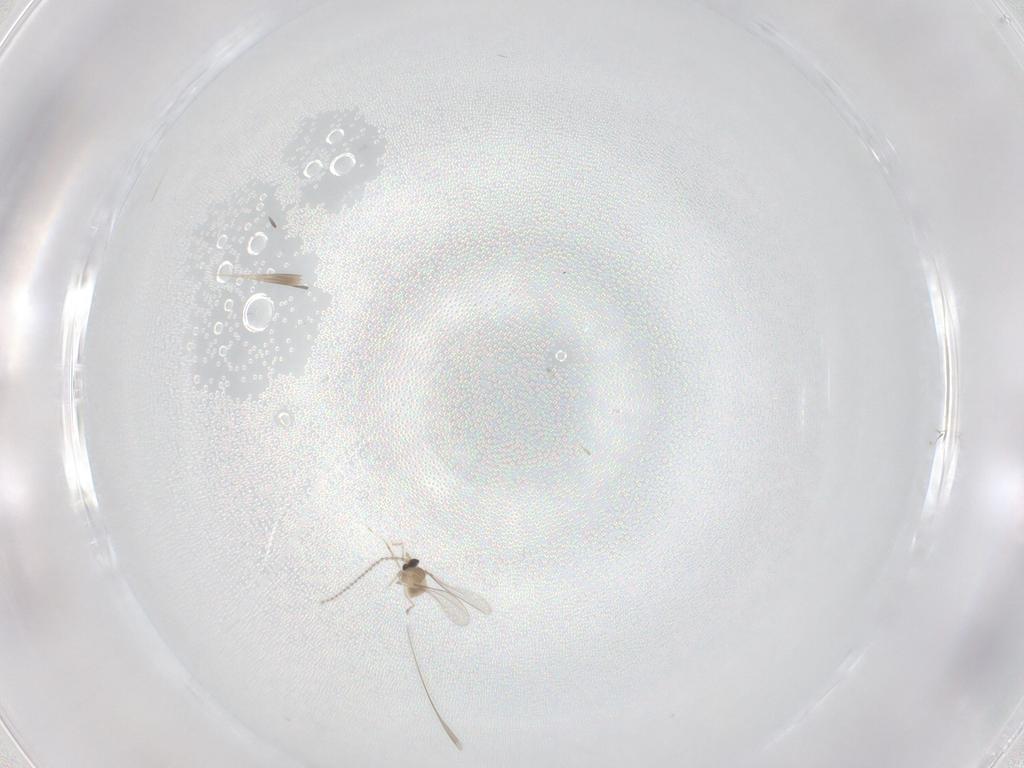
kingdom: Animalia
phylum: Arthropoda
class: Insecta
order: Diptera
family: Cecidomyiidae
